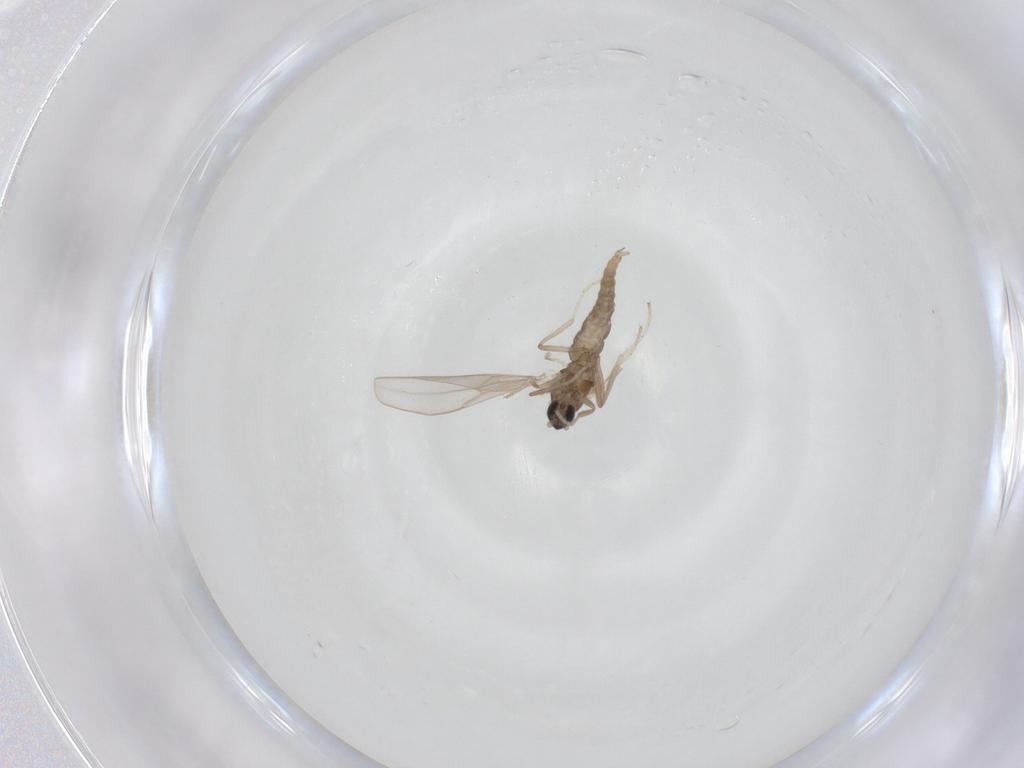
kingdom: Animalia
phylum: Arthropoda
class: Insecta
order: Diptera
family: Cecidomyiidae
